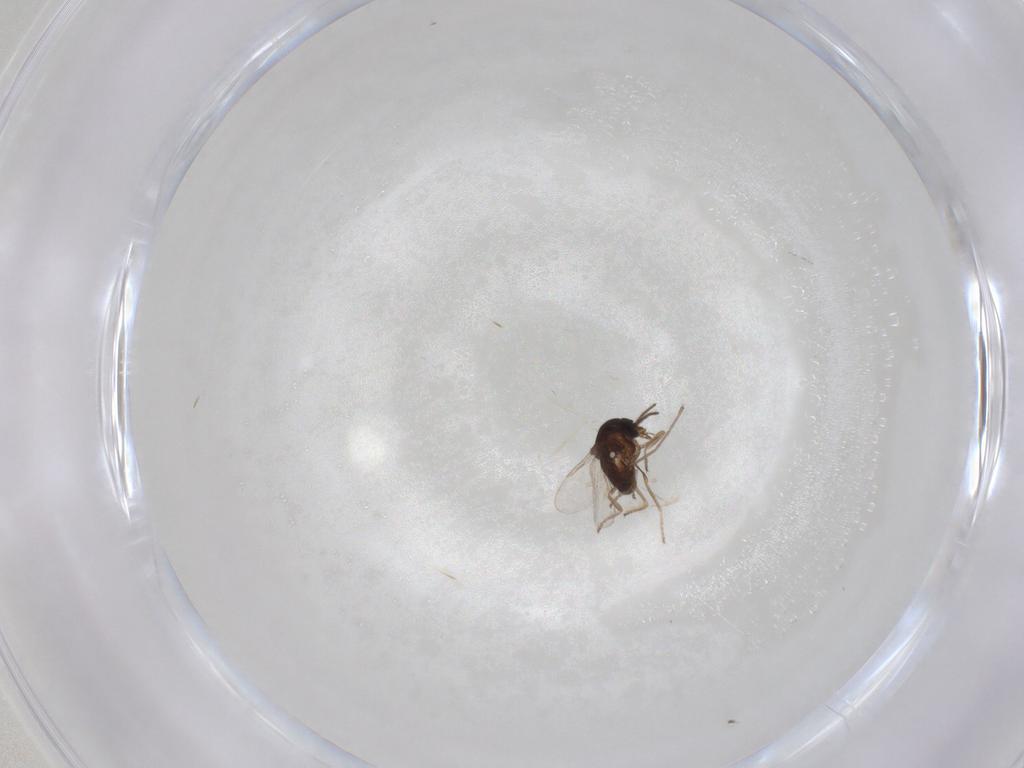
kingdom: Animalia
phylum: Arthropoda
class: Insecta
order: Diptera
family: Ceratopogonidae
